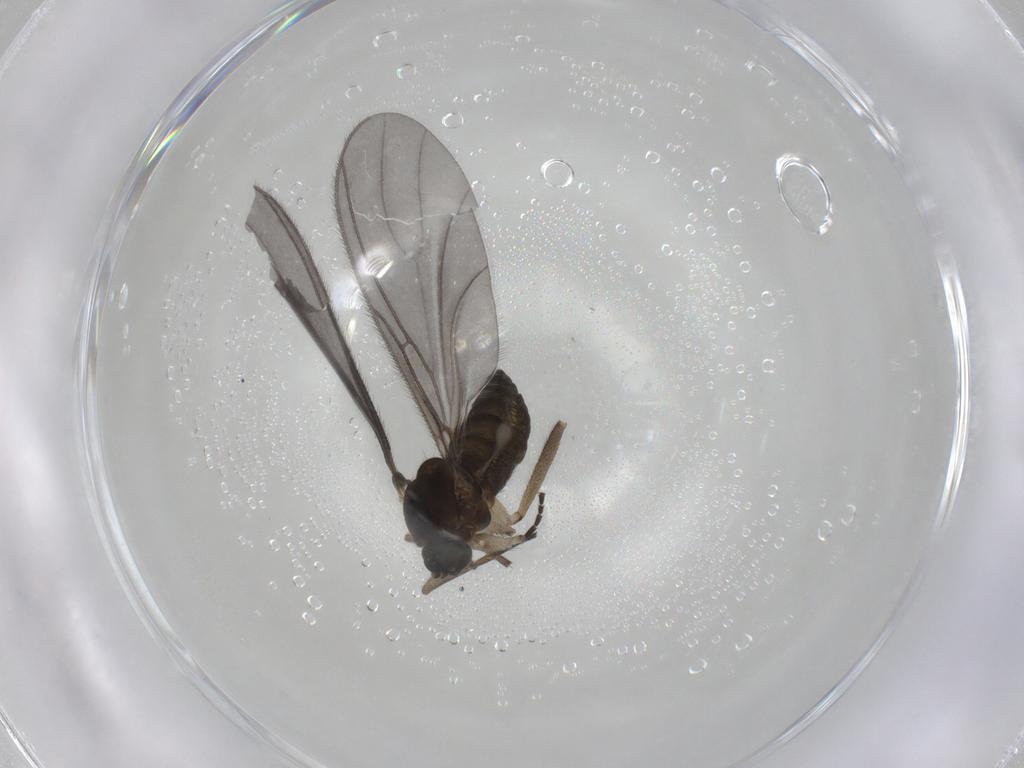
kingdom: Animalia
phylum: Arthropoda
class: Insecta
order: Diptera
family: Sciaridae
